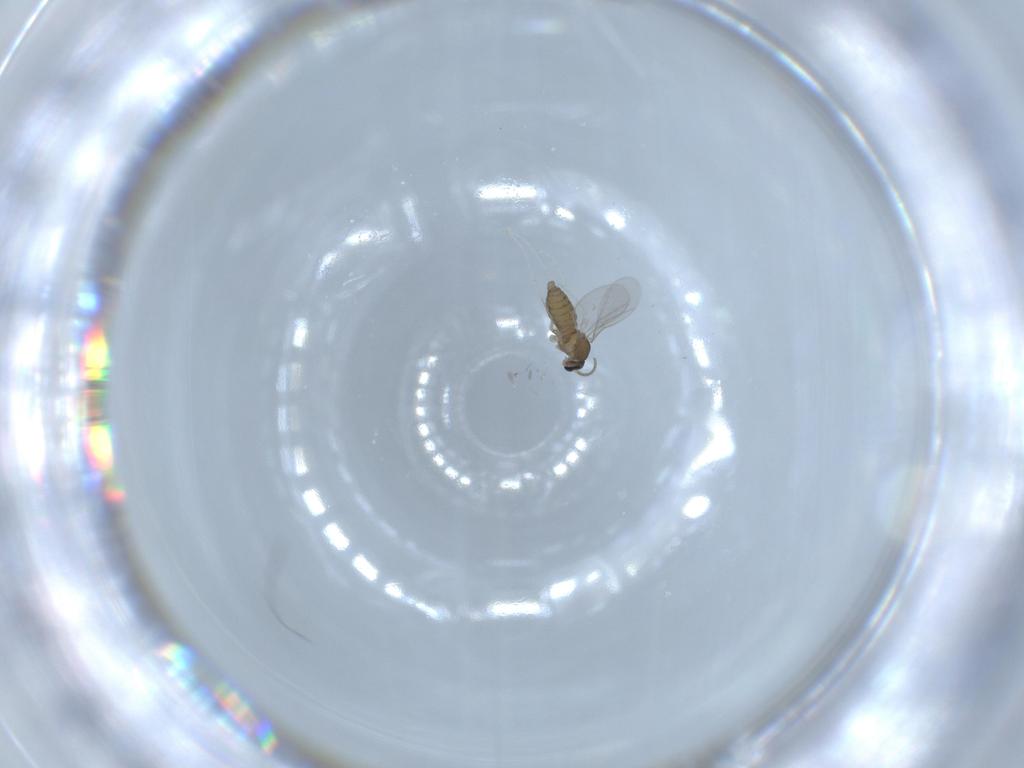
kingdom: Animalia
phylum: Arthropoda
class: Insecta
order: Diptera
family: Cecidomyiidae
